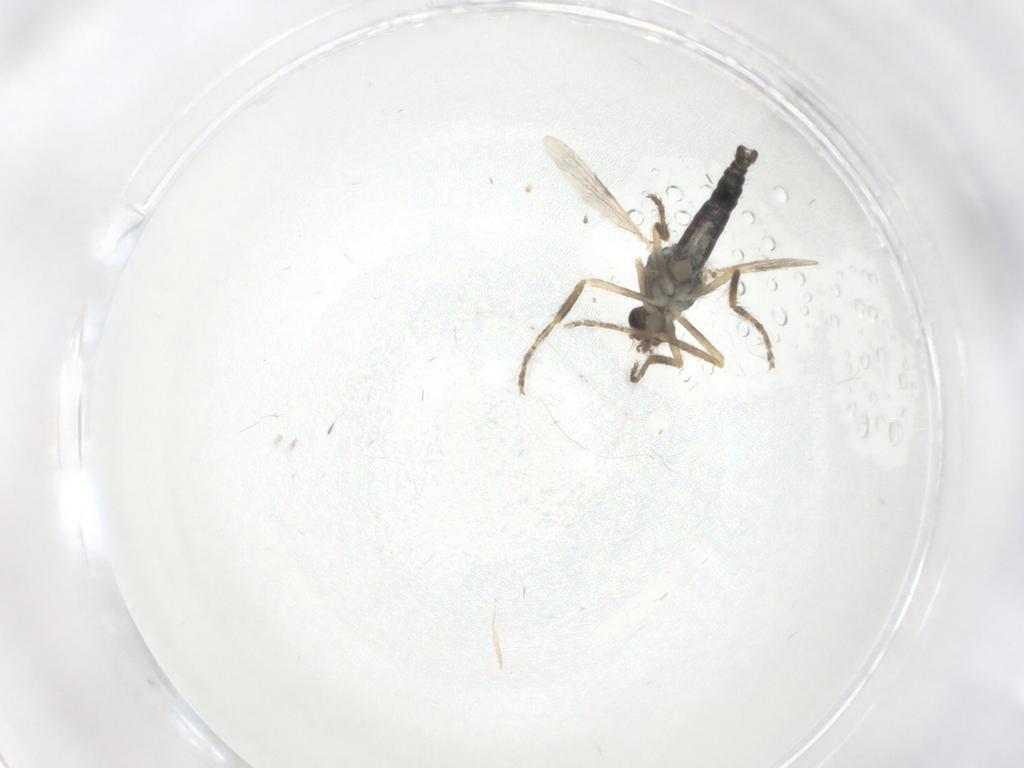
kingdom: Animalia
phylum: Arthropoda
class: Insecta
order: Diptera
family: Ceratopogonidae
